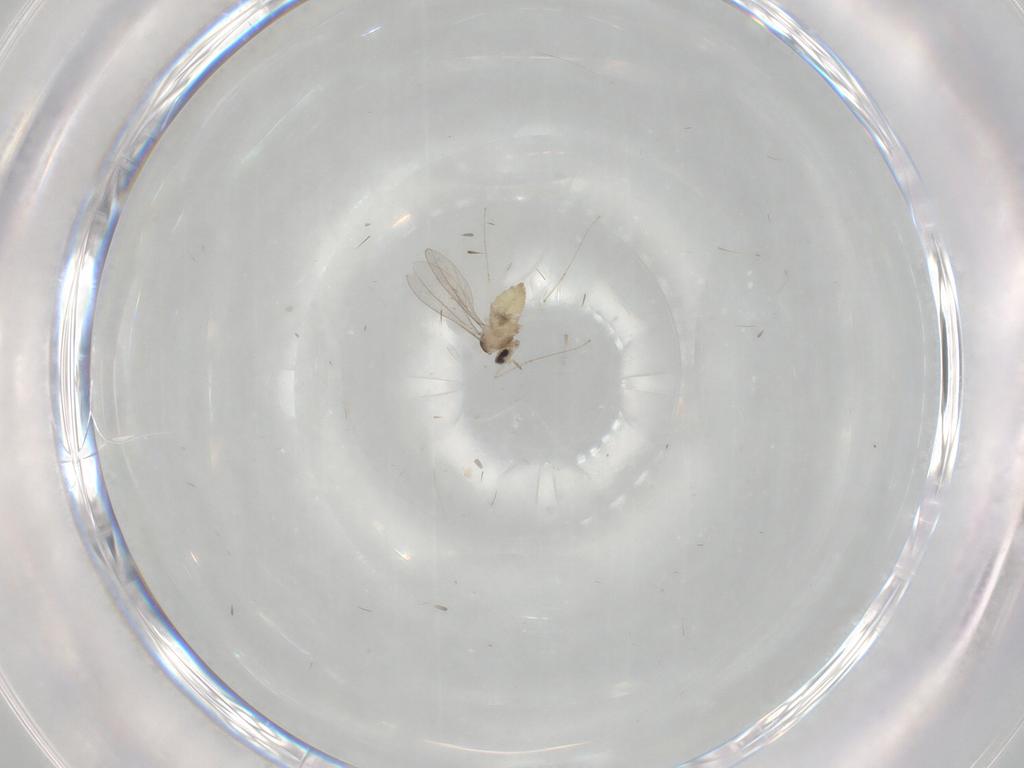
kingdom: Animalia
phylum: Arthropoda
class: Insecta
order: Diptera
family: Cecidomyiidae
